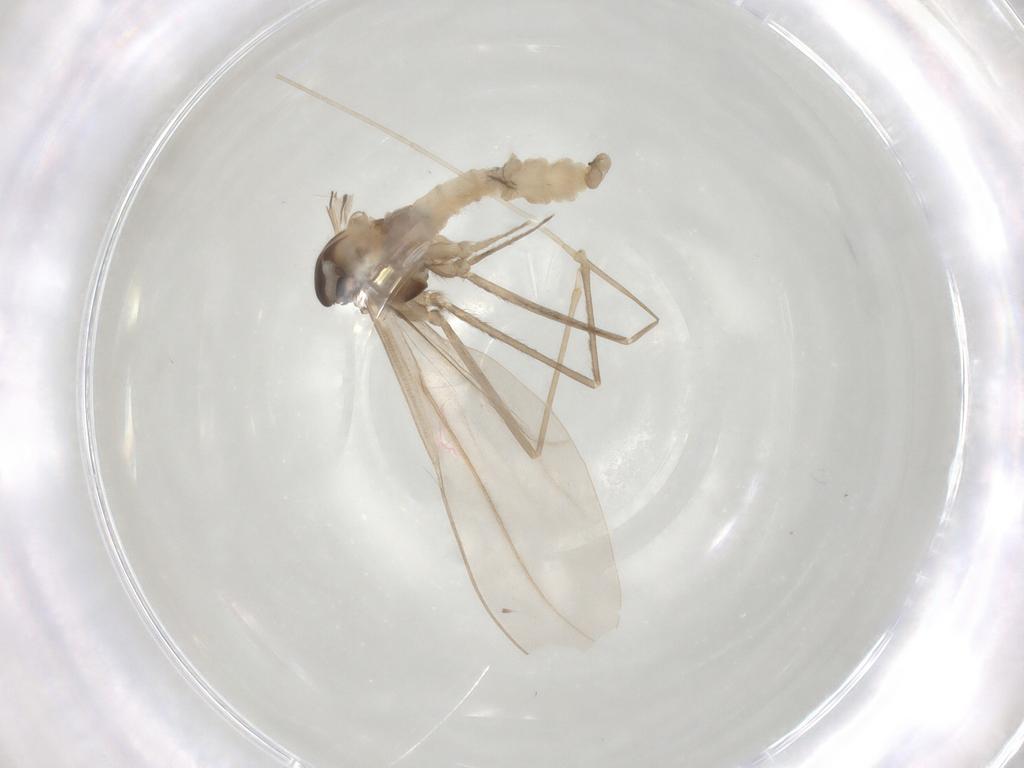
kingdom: Animalia
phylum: Arthropoda
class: Insecta
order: Diptera
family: Cecidomyiidae
